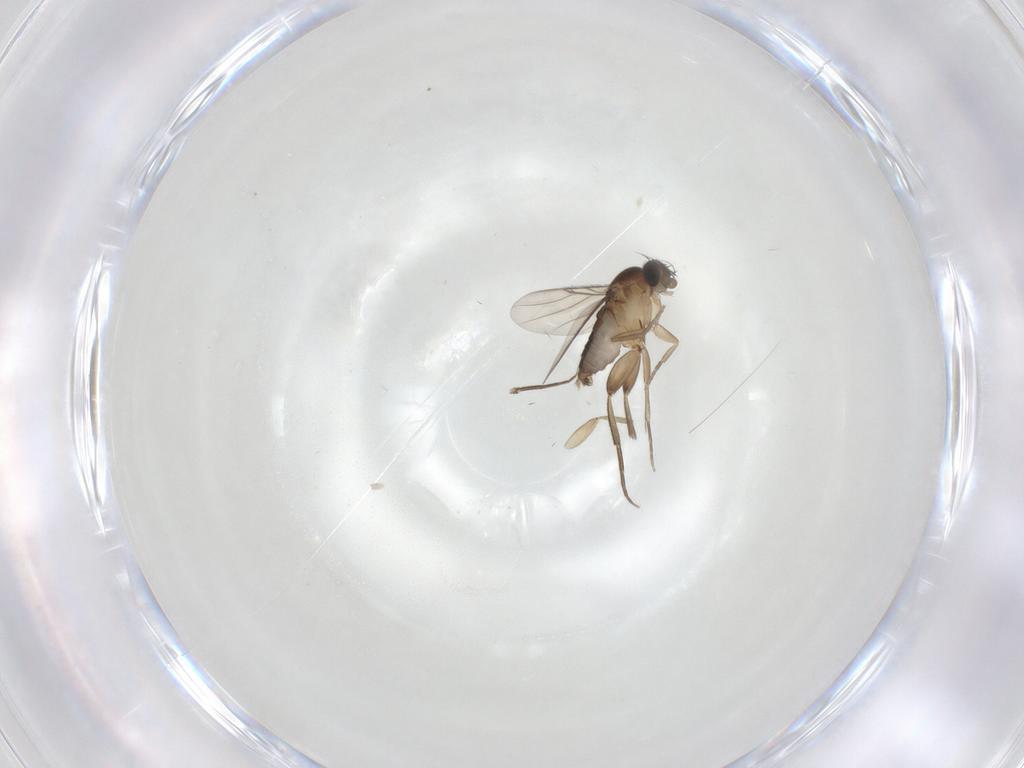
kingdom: Animalia
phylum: Arthropoda
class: Insecta
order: Diptera
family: Phoridae
